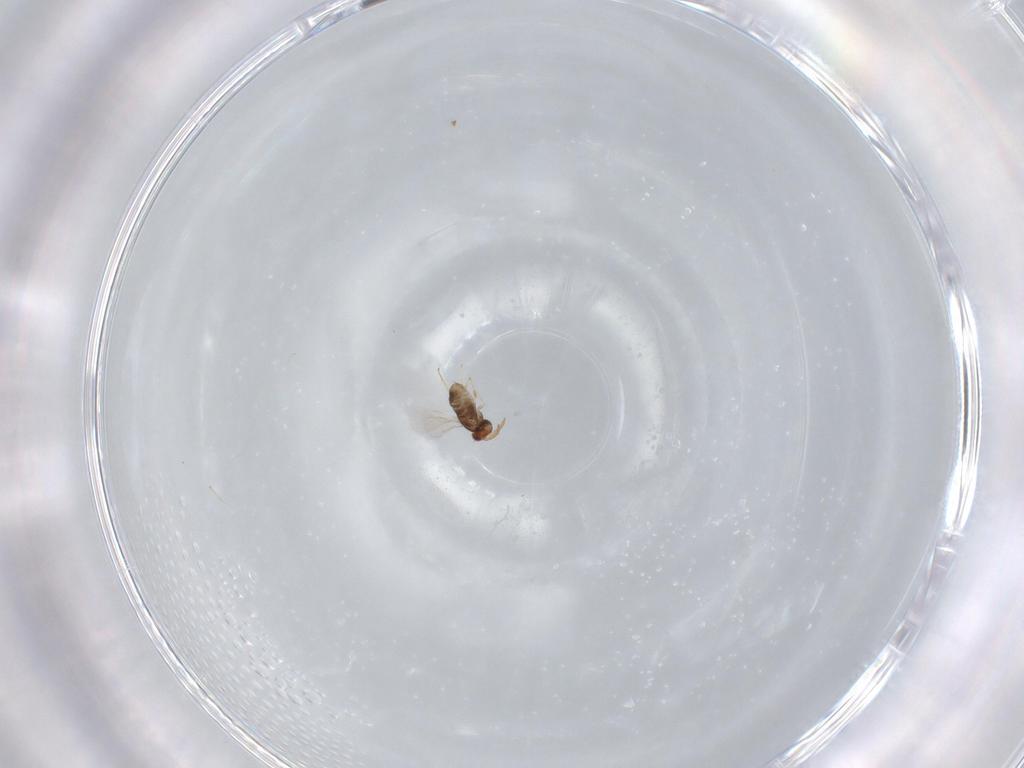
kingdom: Animalia
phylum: Arthropoda
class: Insecta
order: Hymenoptera
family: Aphelinidae
